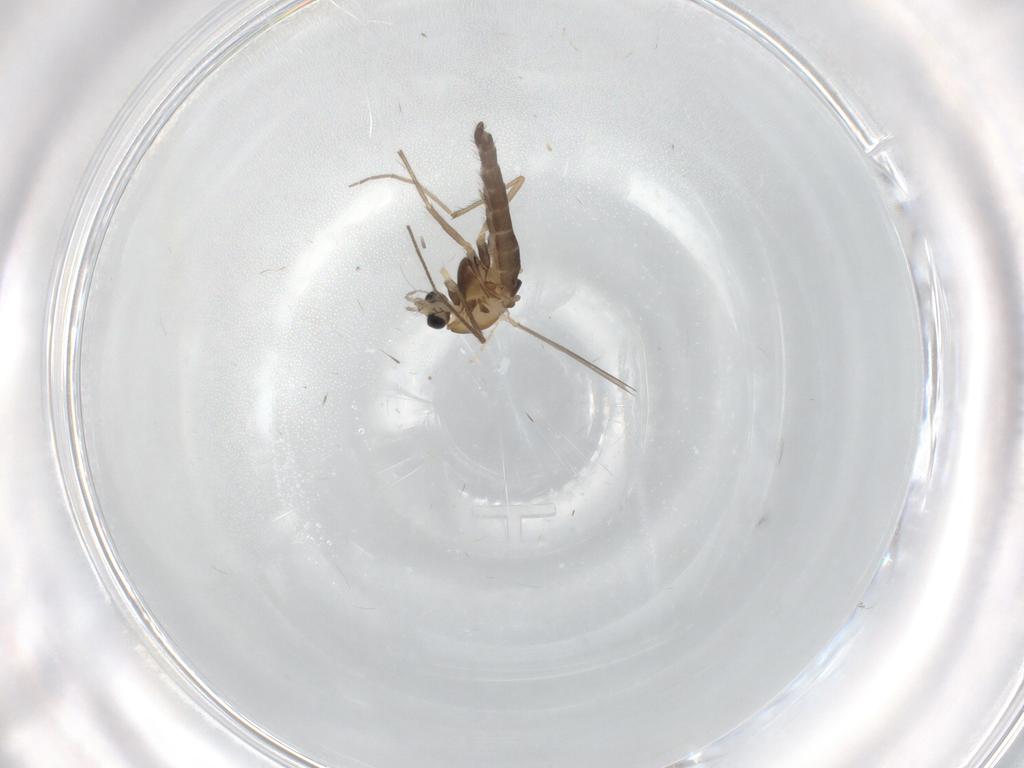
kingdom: Animalia
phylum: Arthropoda
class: Insecta
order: Diptera
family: Chironomidae
